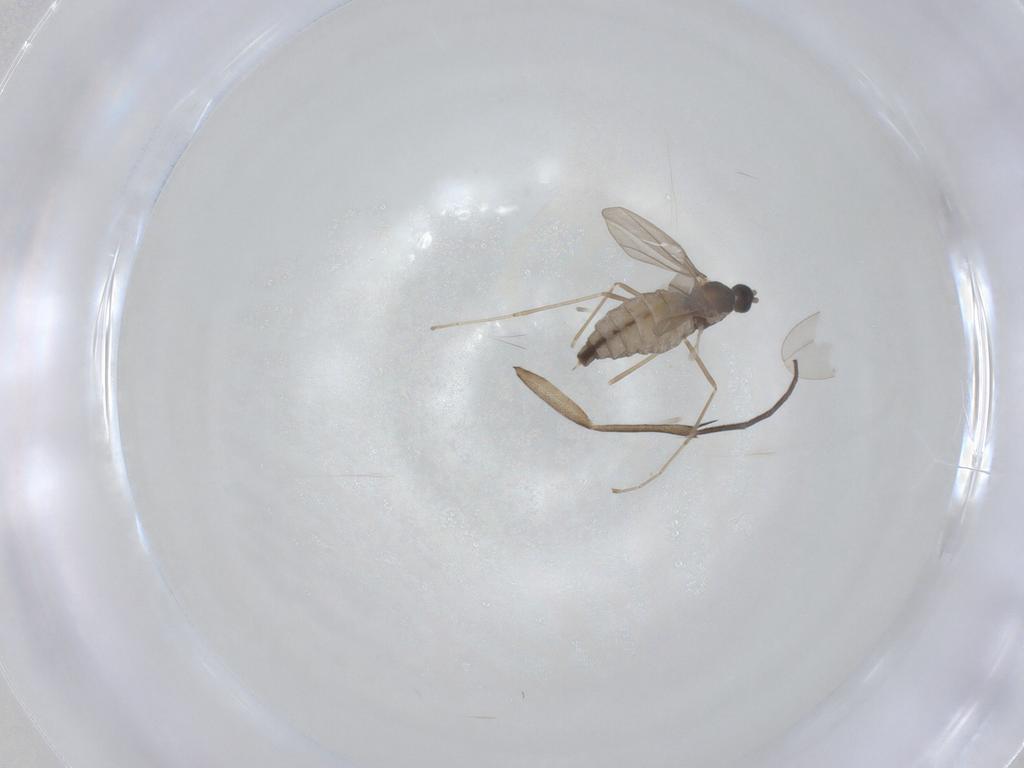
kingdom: Animalia
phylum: Arthropoda
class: Insecta
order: Diptera
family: Cecidomyiidae
